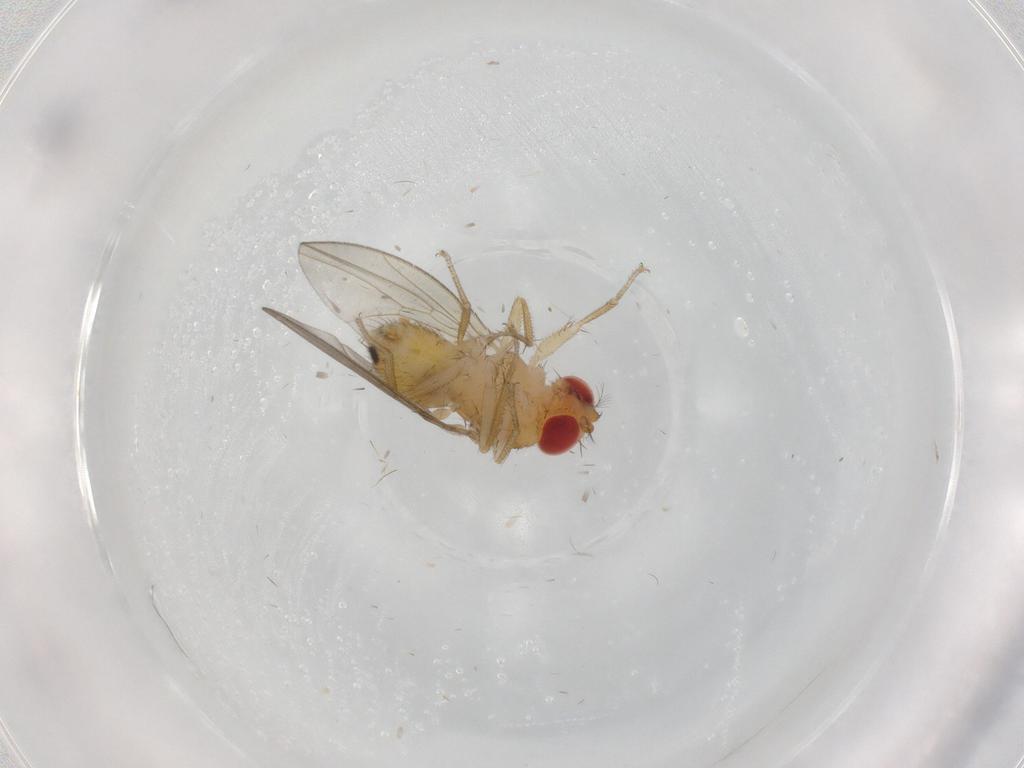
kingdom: Animalia
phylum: Arthropoda
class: Insecta
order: Diptera
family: Drosophilidae
